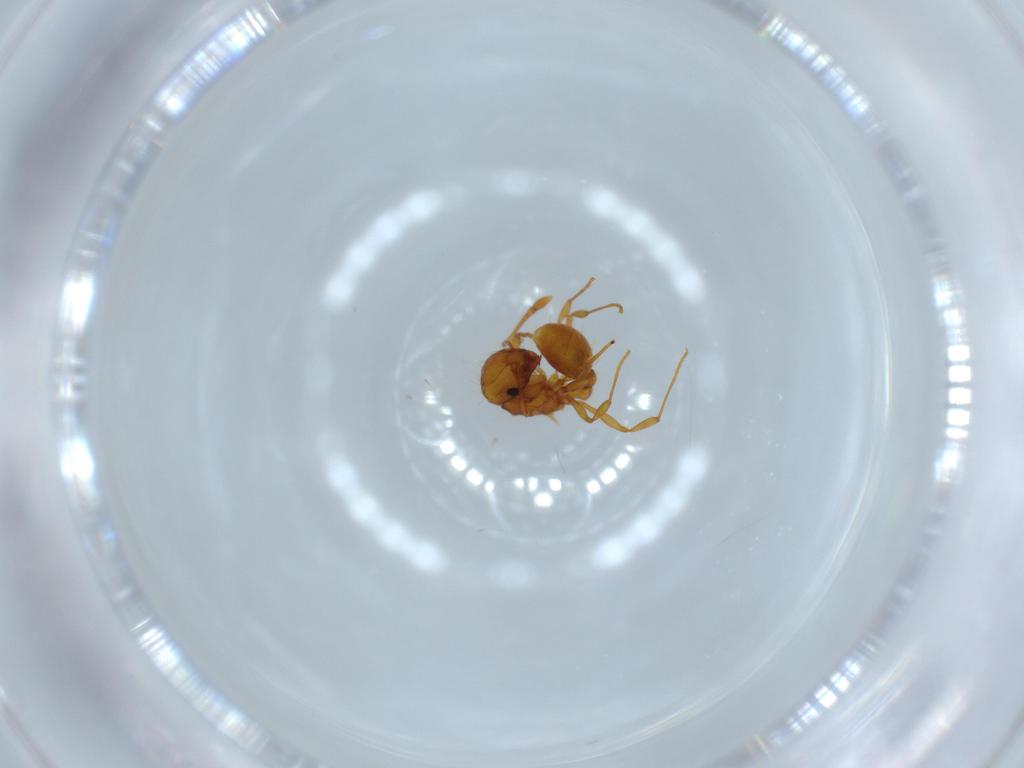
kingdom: Animalia
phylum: Arthropoda
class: Insecta
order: Hymenoptera
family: Formicidae
